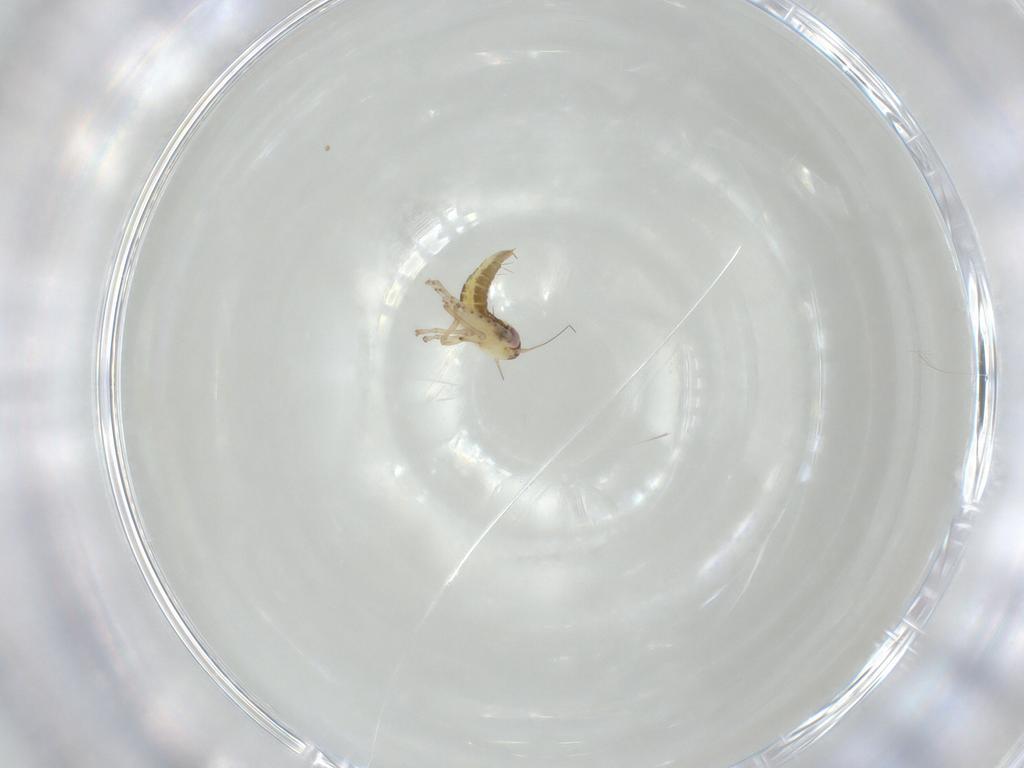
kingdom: Animalia
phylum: Arthropoda
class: Insecta
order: Hemiptera
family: Cicadellidae
